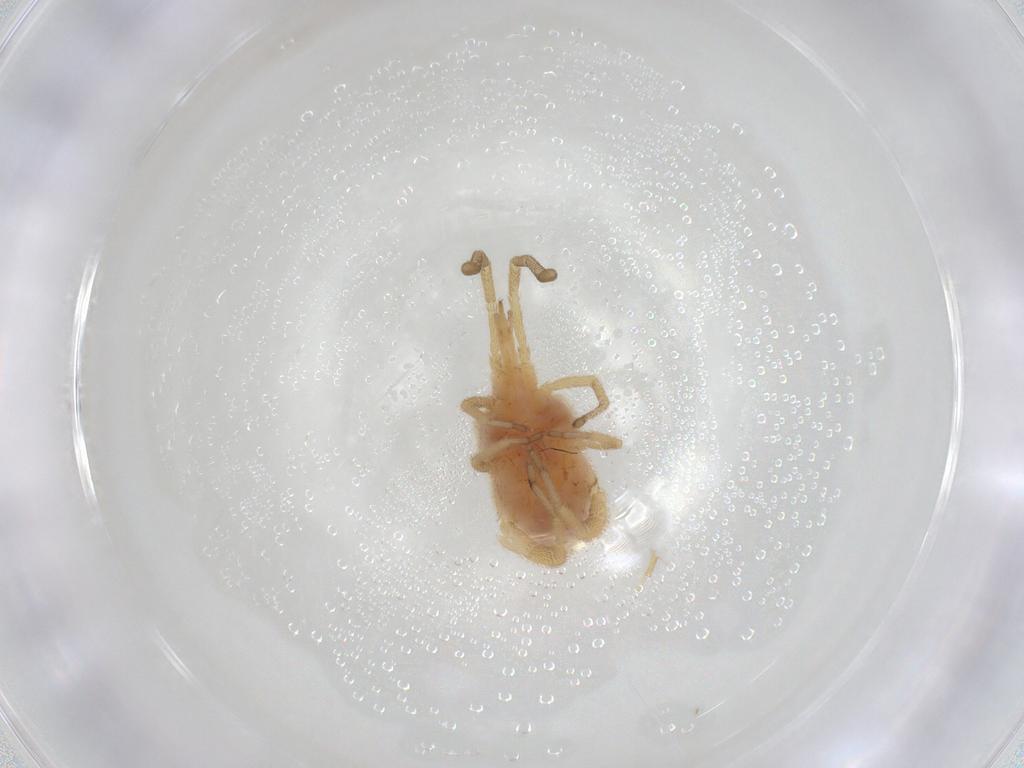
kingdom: Animalia
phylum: Arthropoda
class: Arachnida
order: Trombidiformes
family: Smarididae
